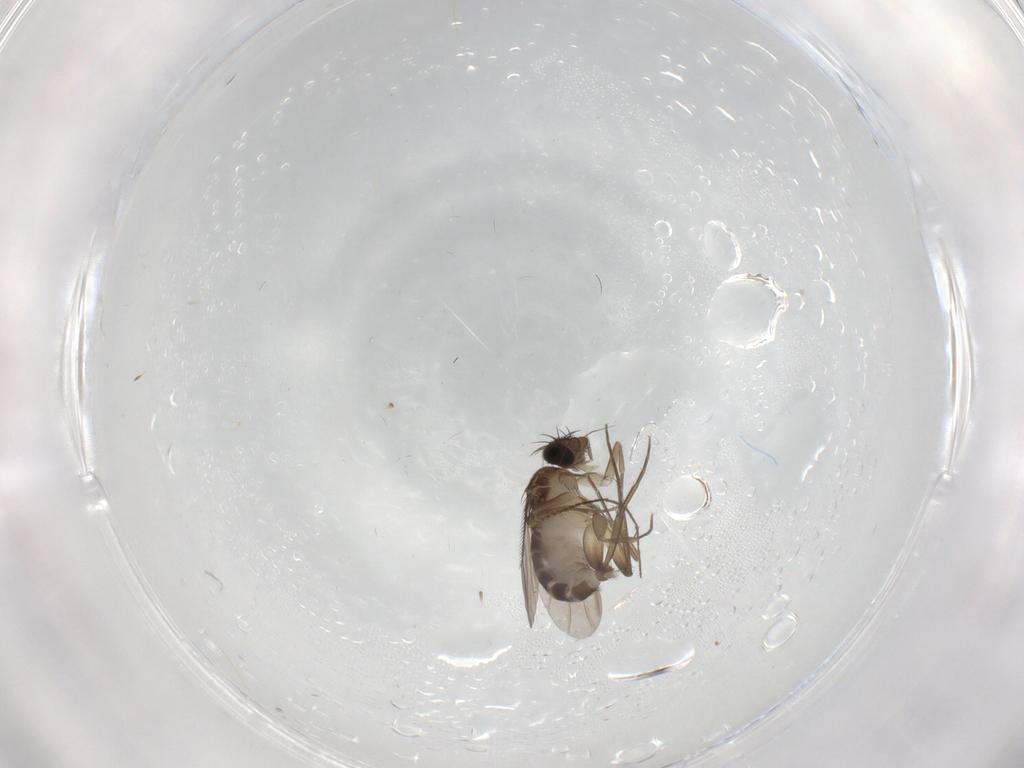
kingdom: Animalia
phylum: Arthropoda
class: Insecta
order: Diptera
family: Phoridae
